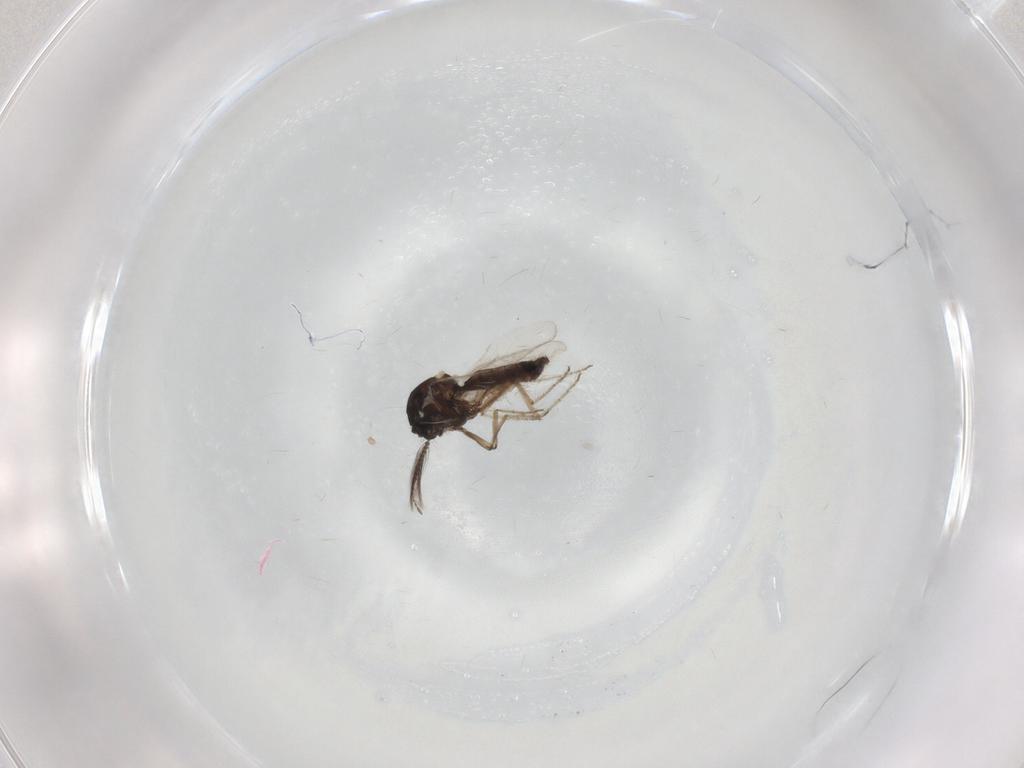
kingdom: Animalia
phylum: Arthropoda
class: Insecta
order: Diptera
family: Ceratopogonidae
